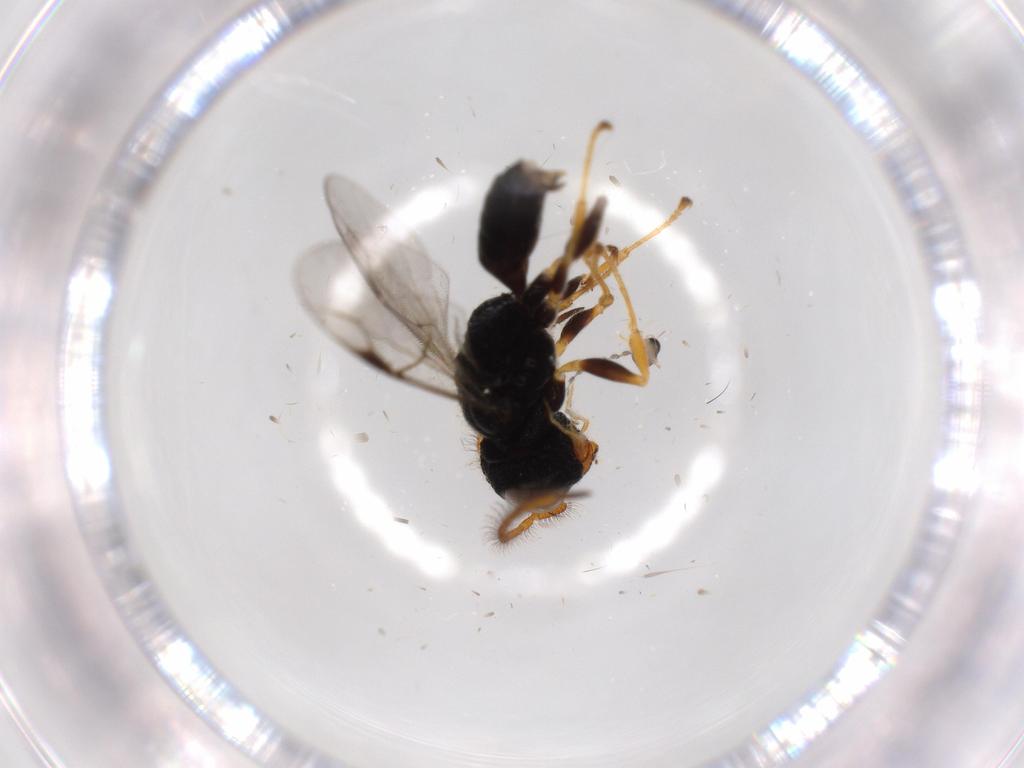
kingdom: Animalia
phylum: Arthropoda
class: Insecta
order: Hymenoptera
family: Dryinidae
